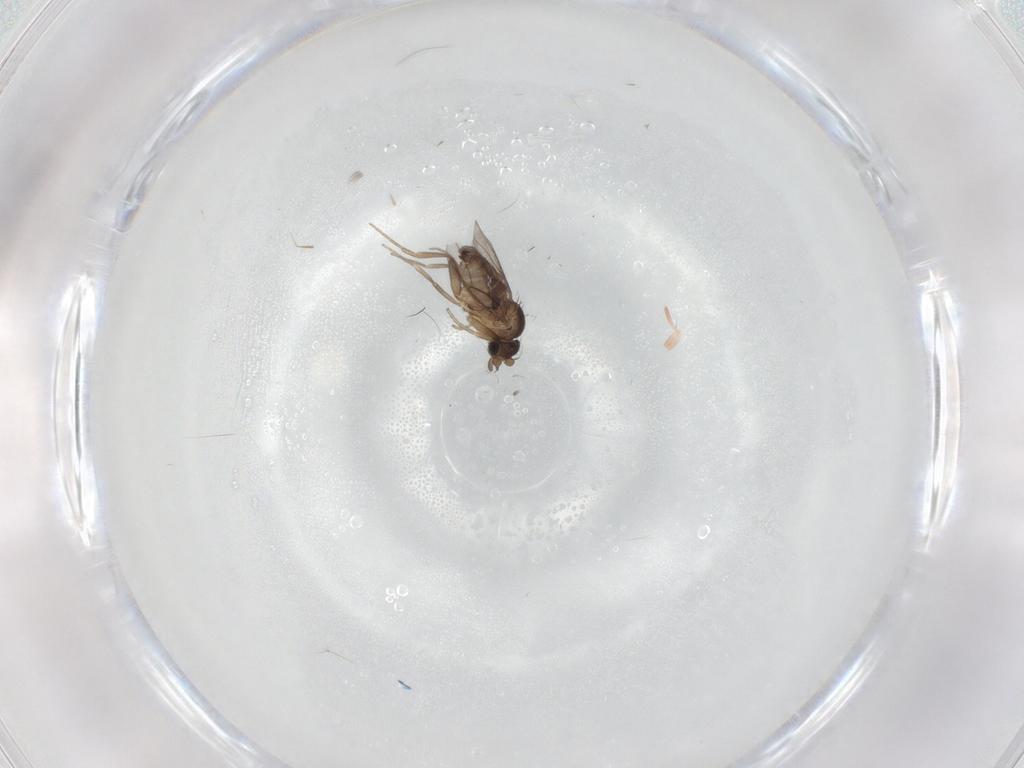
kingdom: Animalia
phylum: Arthropoda
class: Insecta
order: Diptera
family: Phoridae
